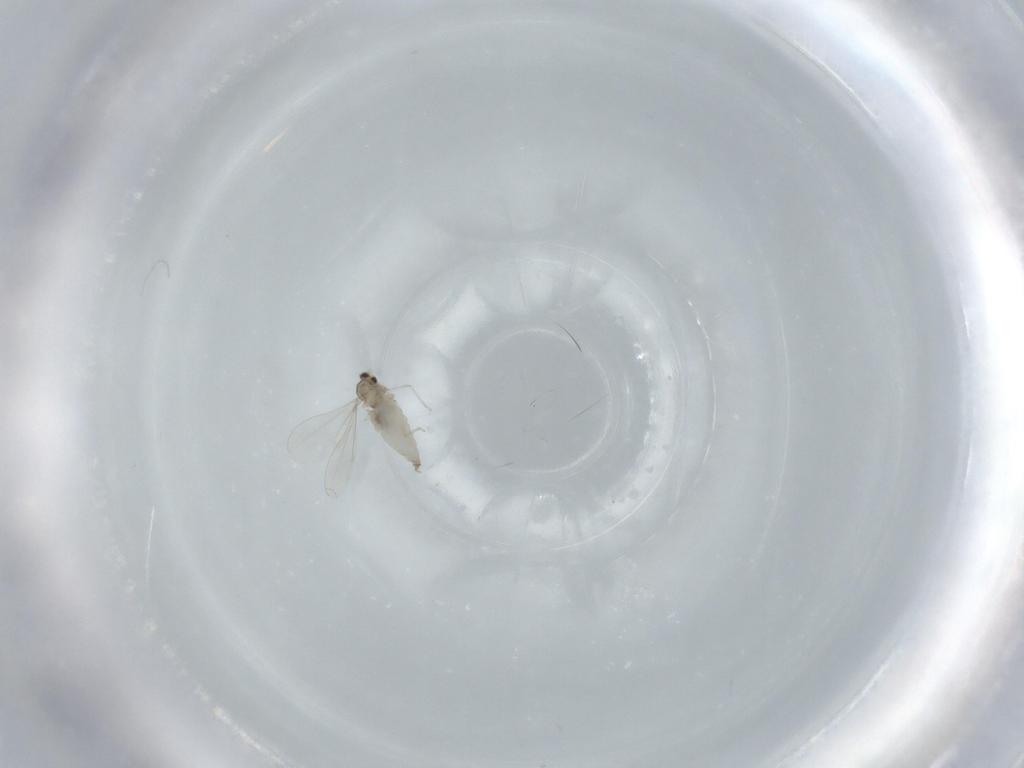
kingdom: Animalia
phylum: Arthropoda
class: Insecta
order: Diptera
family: Cecidomyiidae
